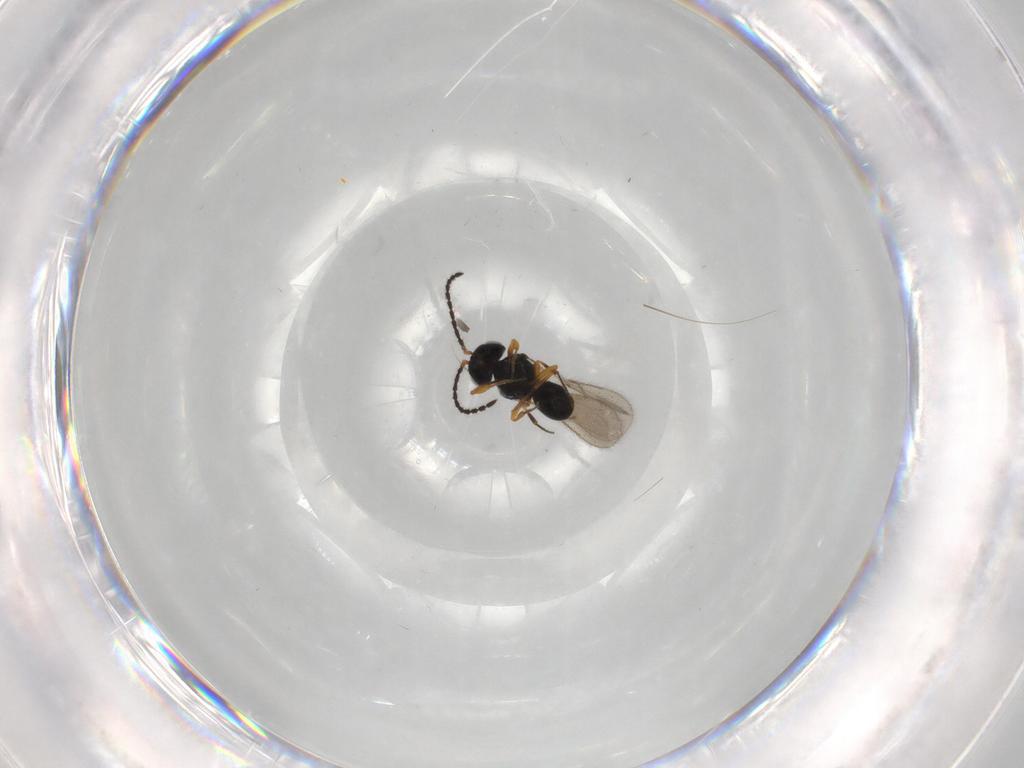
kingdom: Animalia
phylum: Arthropoda
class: Insecta
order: Hymenoptera
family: Scelionidae
